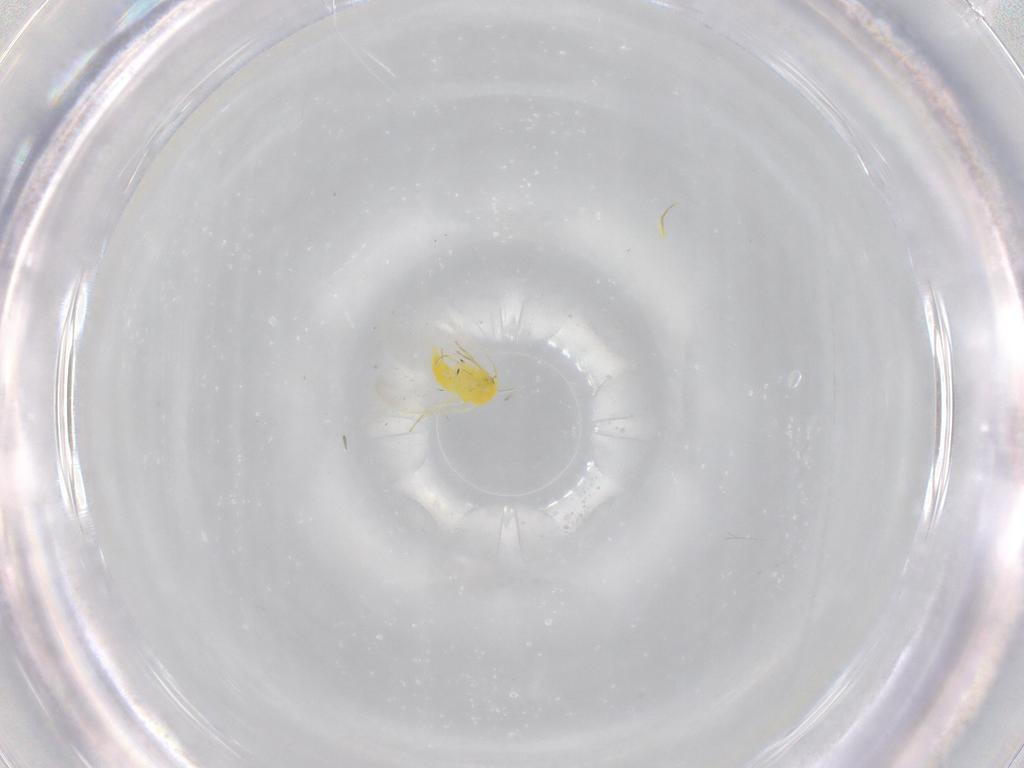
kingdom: Animalia
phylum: Arthropoda
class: Insecta
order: Hemiptera
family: Aleyrodidae
